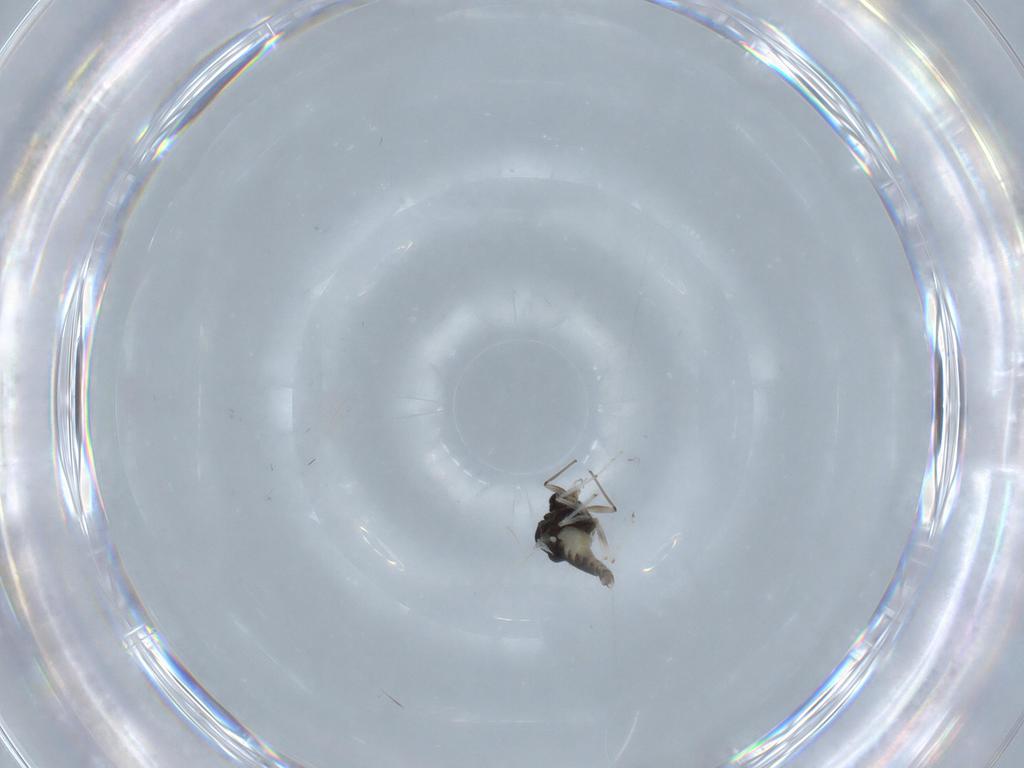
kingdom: Animalia
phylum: Arthropoda
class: Insecta
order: Diptera
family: Chironomidae
